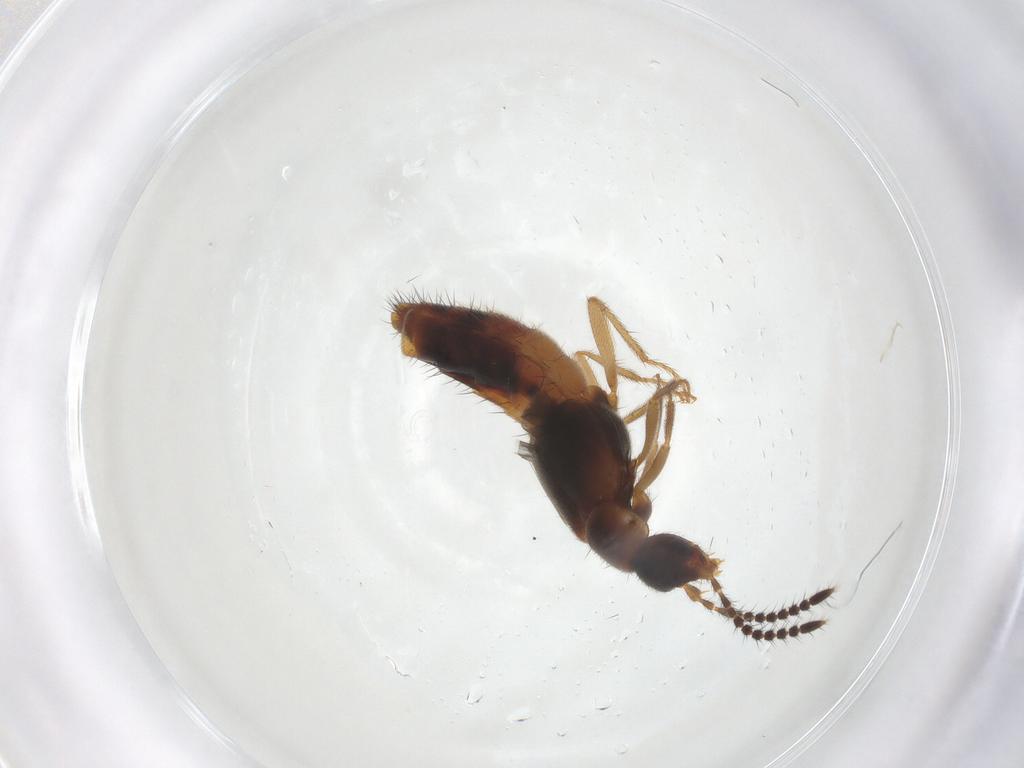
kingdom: Animalia
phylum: Arthropoda
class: Insecta
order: Coleoptera
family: Staphylinidae
